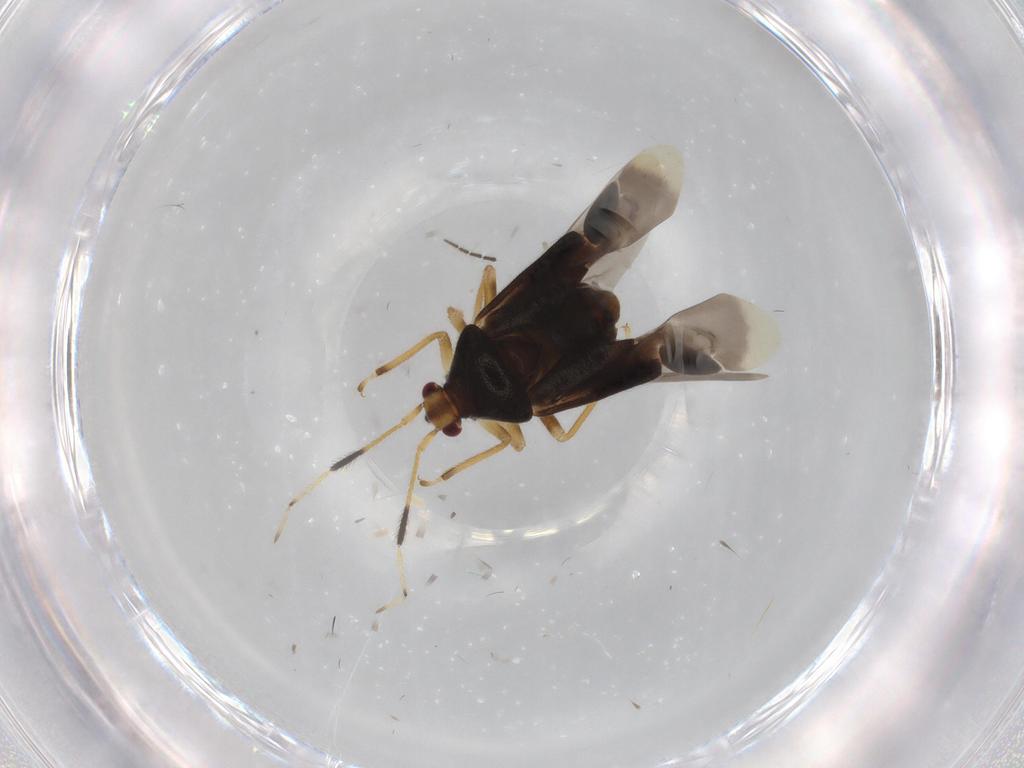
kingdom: Animalia
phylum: Arthropoda
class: Insecta
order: Hemiptera
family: Miridae
